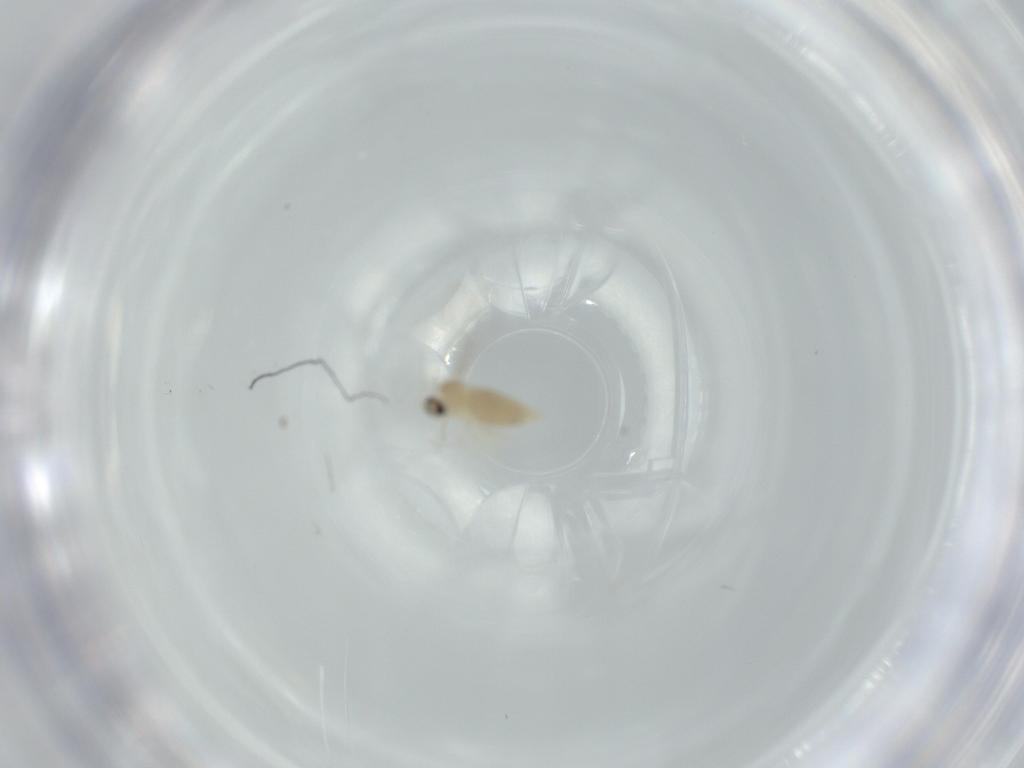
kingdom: Animalia
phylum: Arthropoda
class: Insecta
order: Diptera
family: Cecidomyiidae
